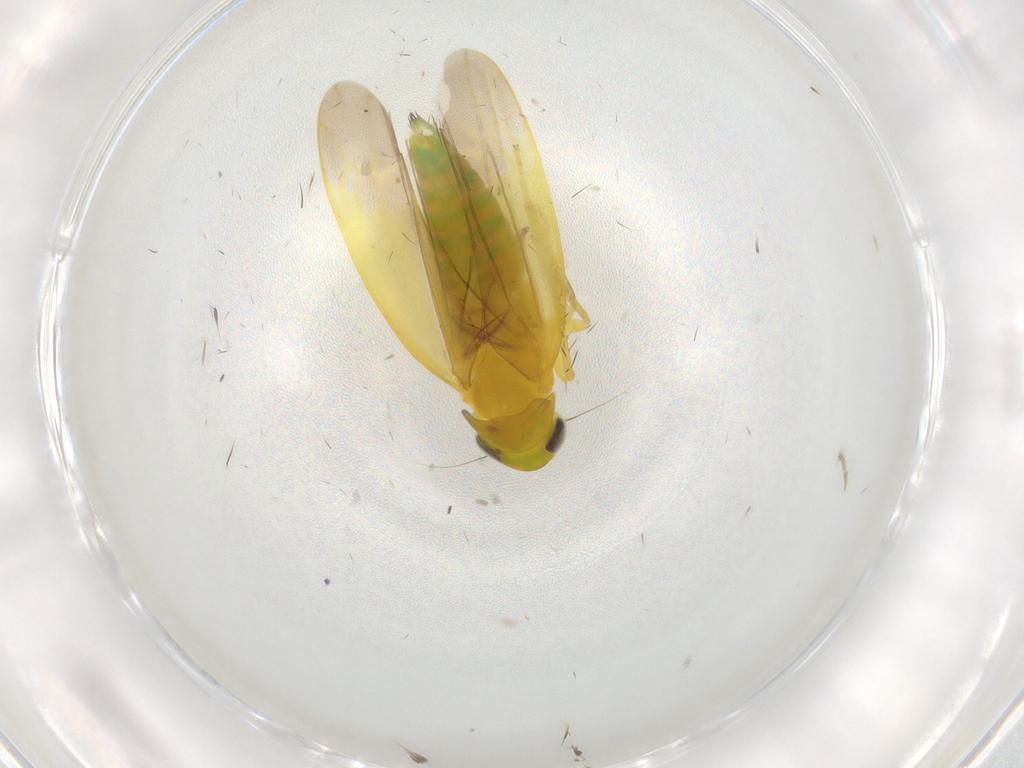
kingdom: Animalia
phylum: Arthropoda
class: Insecta
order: Hemiptera
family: Cicadellidae
